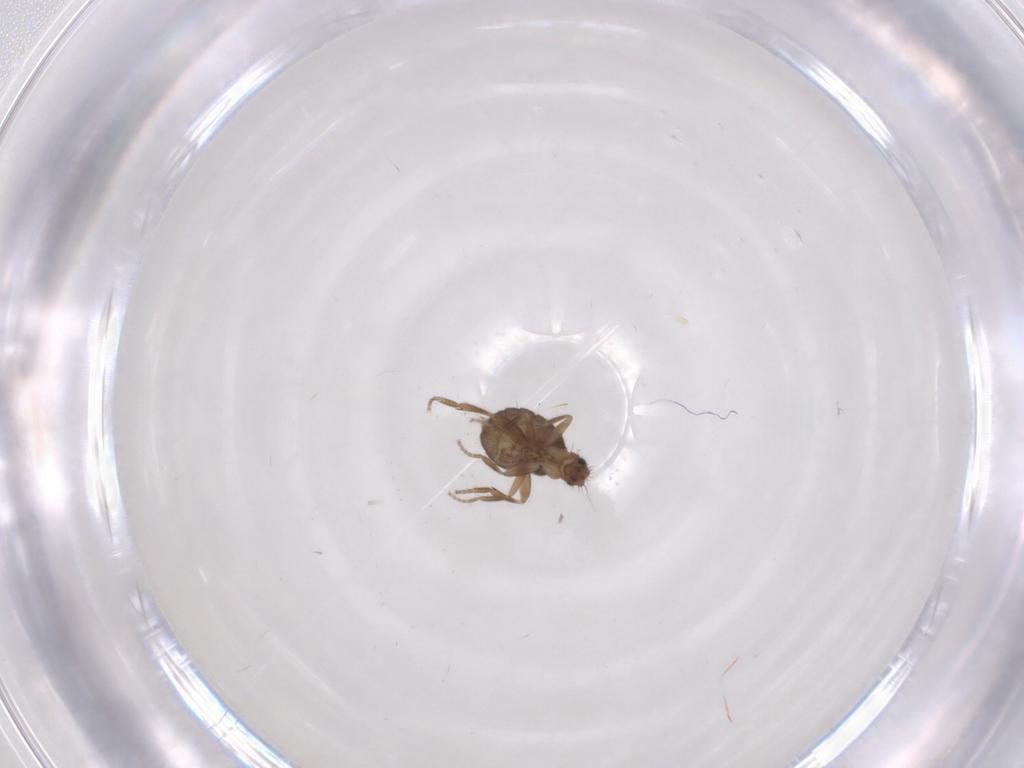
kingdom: Animalia
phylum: Arthropoda
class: Insecta
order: Diptera
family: Phoridae
